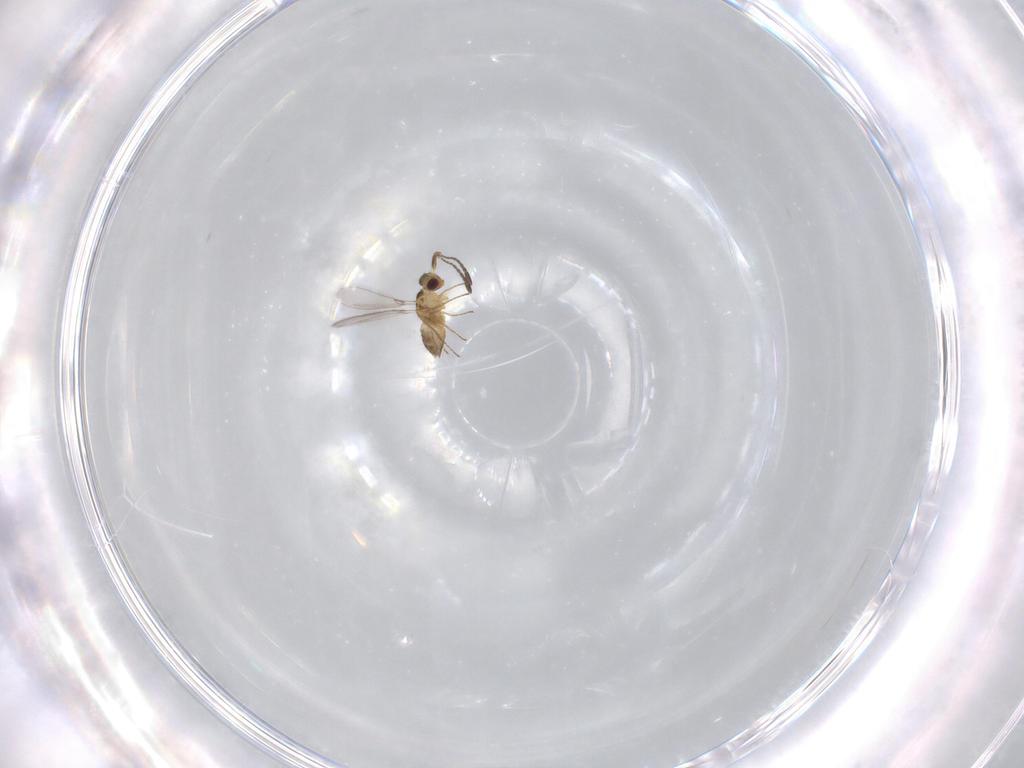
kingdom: Animalia
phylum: Arthropoda
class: Insecta
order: Hymenoptera
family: Mymaridae
